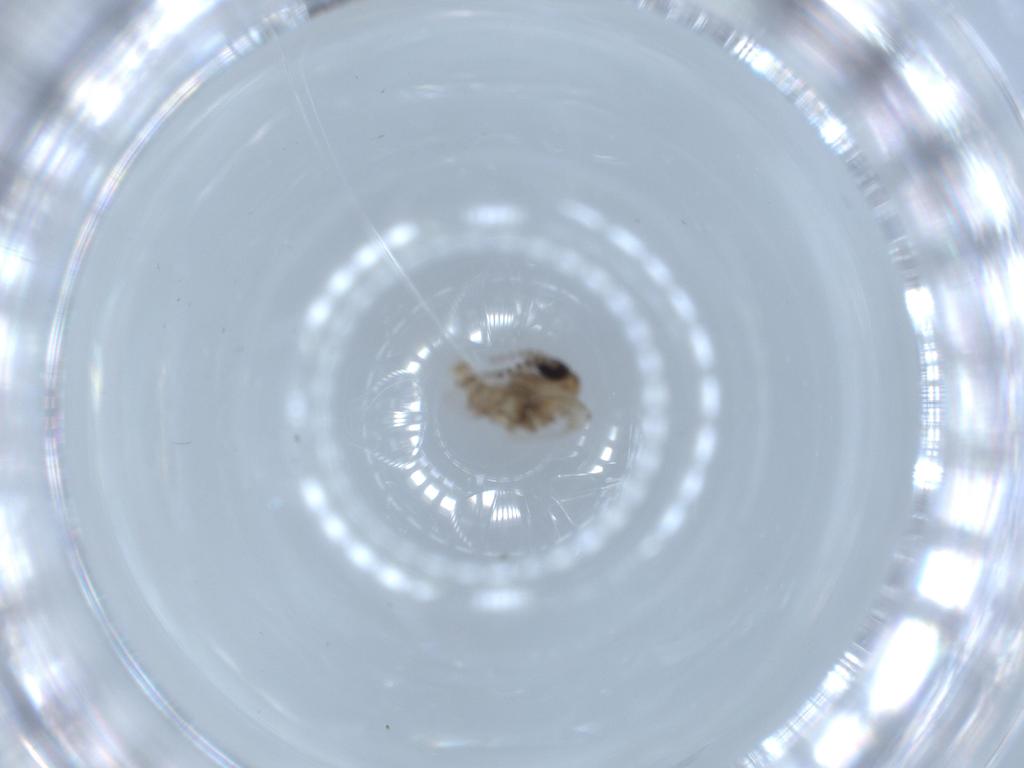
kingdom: Animalia
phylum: Arthropoda
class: Insecta
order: Diptera
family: Psychodidae
